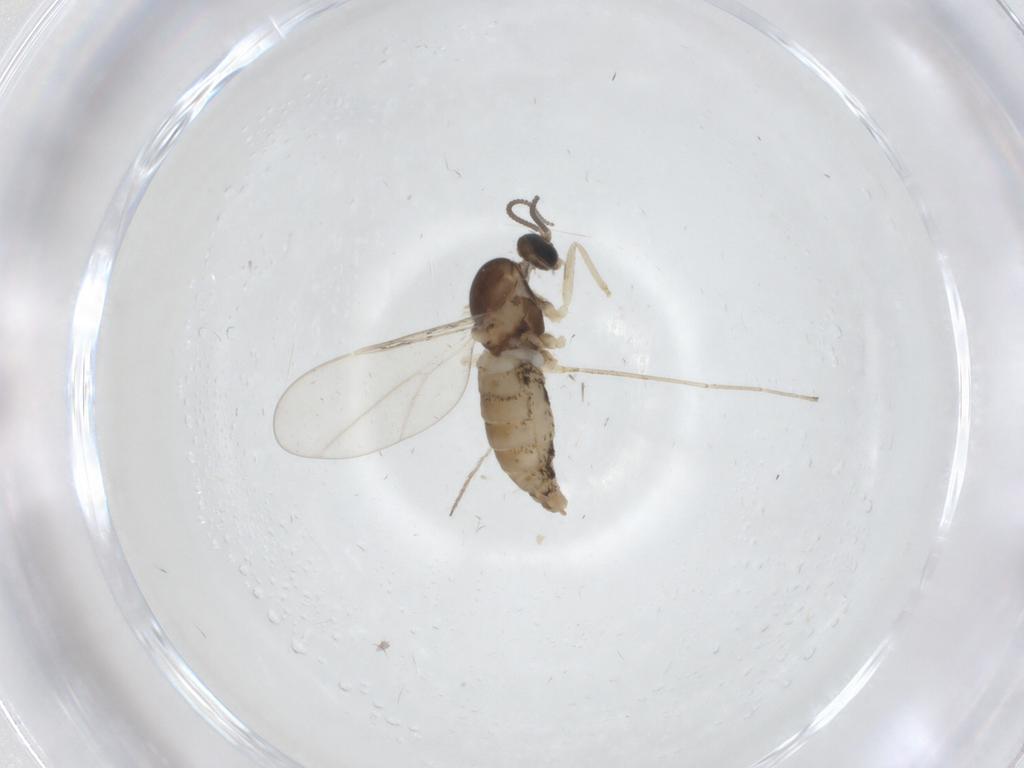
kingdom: Animalia
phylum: Arthropoda
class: Insecta
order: Diptera
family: Cecidomyiidae
